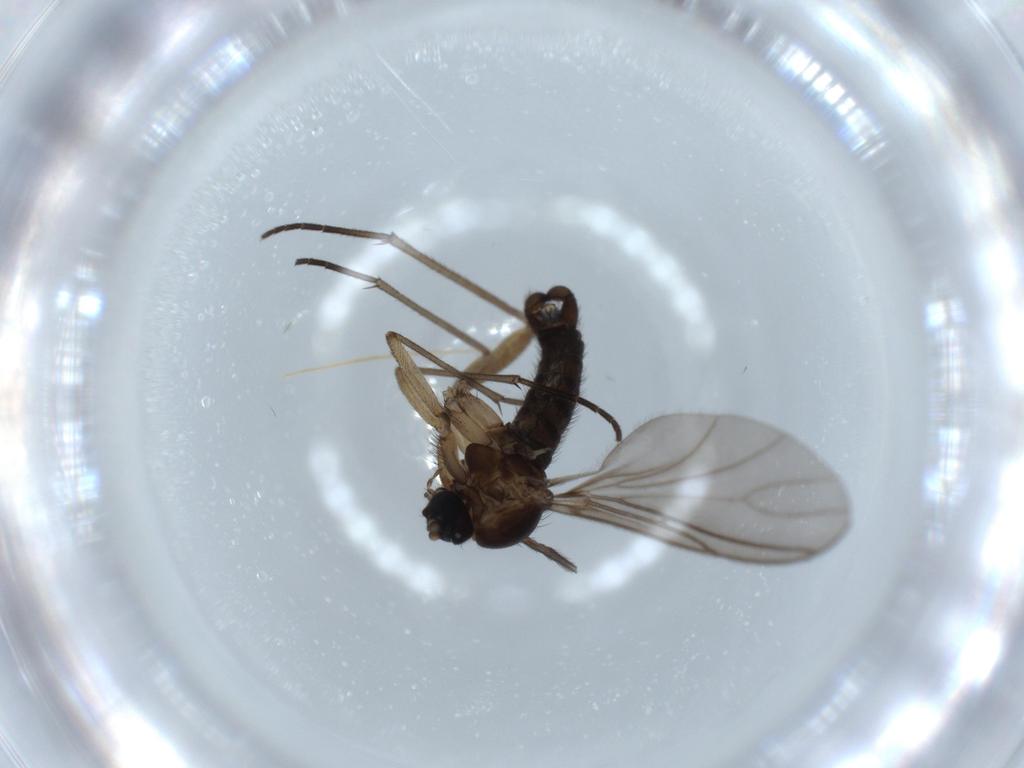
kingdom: Animalia
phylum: Arthropoda
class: Insecta
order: Diptera
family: Sciaridae
